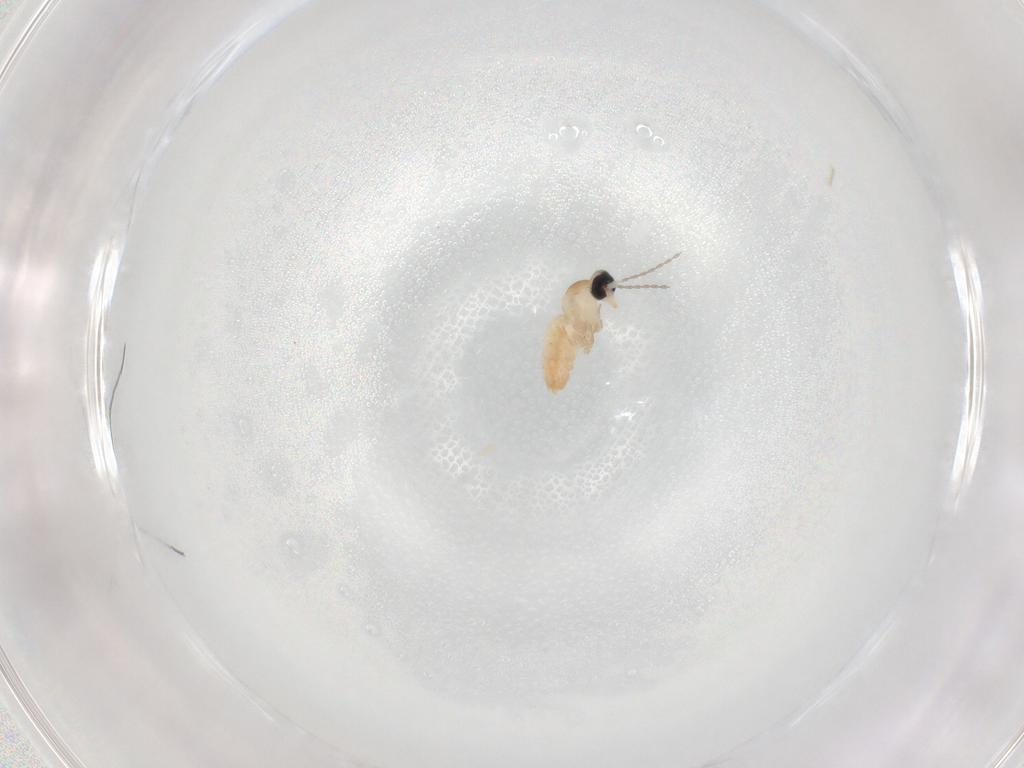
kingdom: Animalia
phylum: Arthropoda
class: Insecta
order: Diptera
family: Cecidomyiidae
